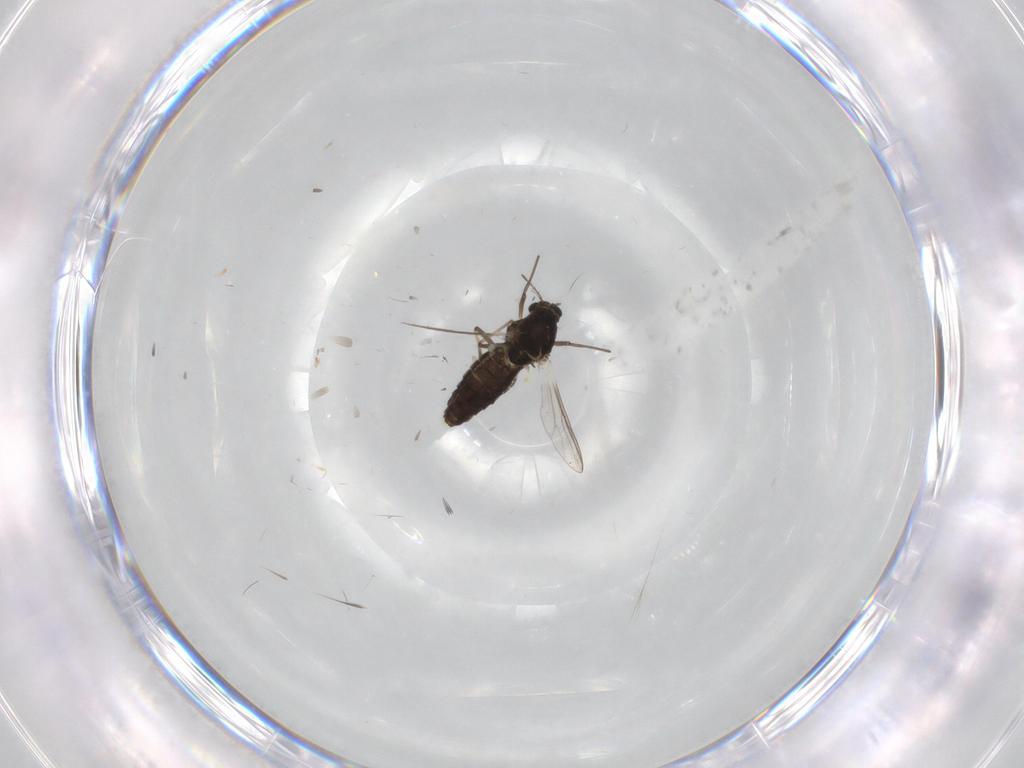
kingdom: Animalia
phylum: Arthropoda
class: Insecta
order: Diptera
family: Chironomidae
